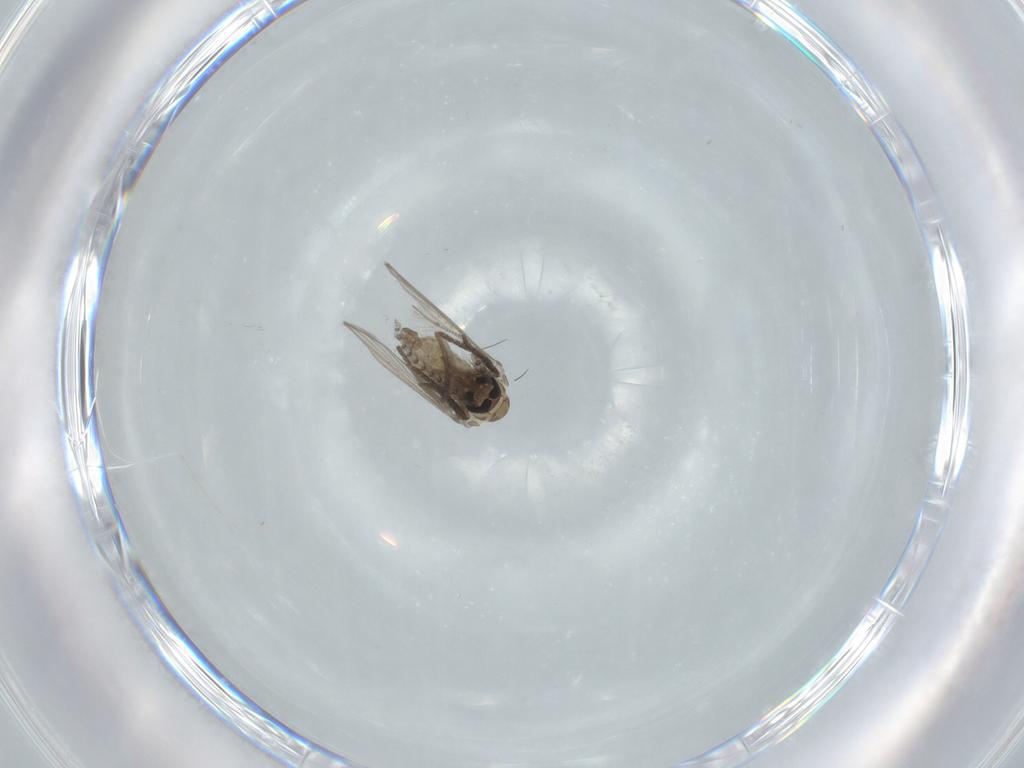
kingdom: Animalia
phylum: Arthropoda
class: Insecta
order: Diptera
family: Psychodidae
